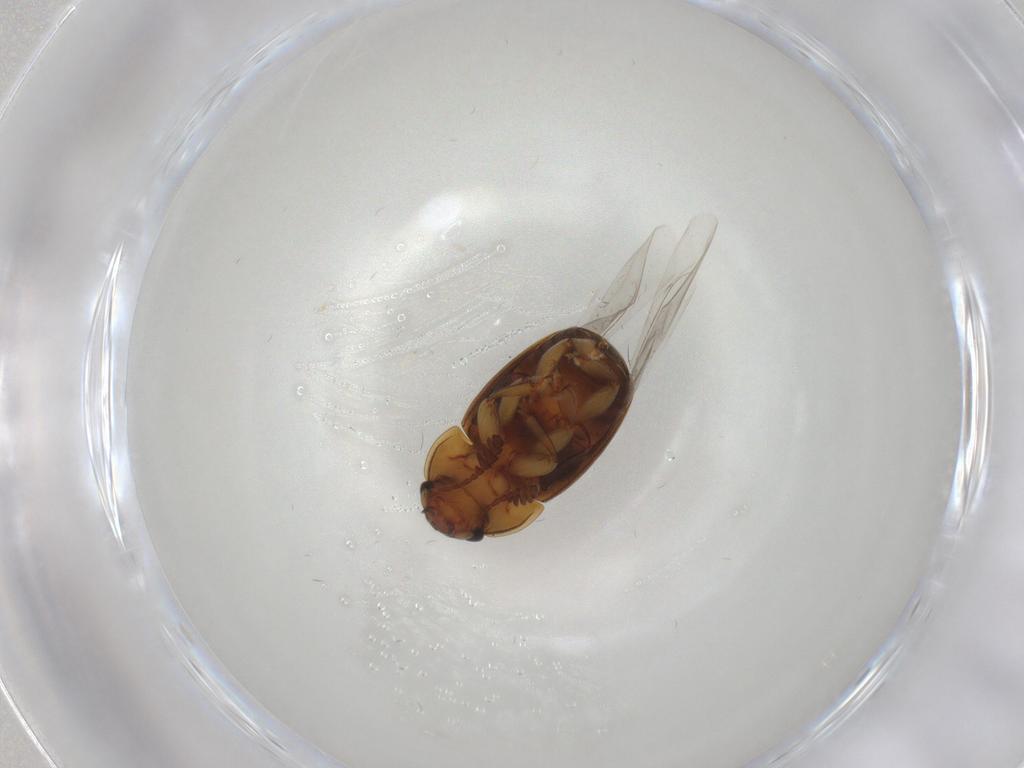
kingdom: Animalia
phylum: Arthropoda
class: Insecta
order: Coleoptera
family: Nitidulidae
